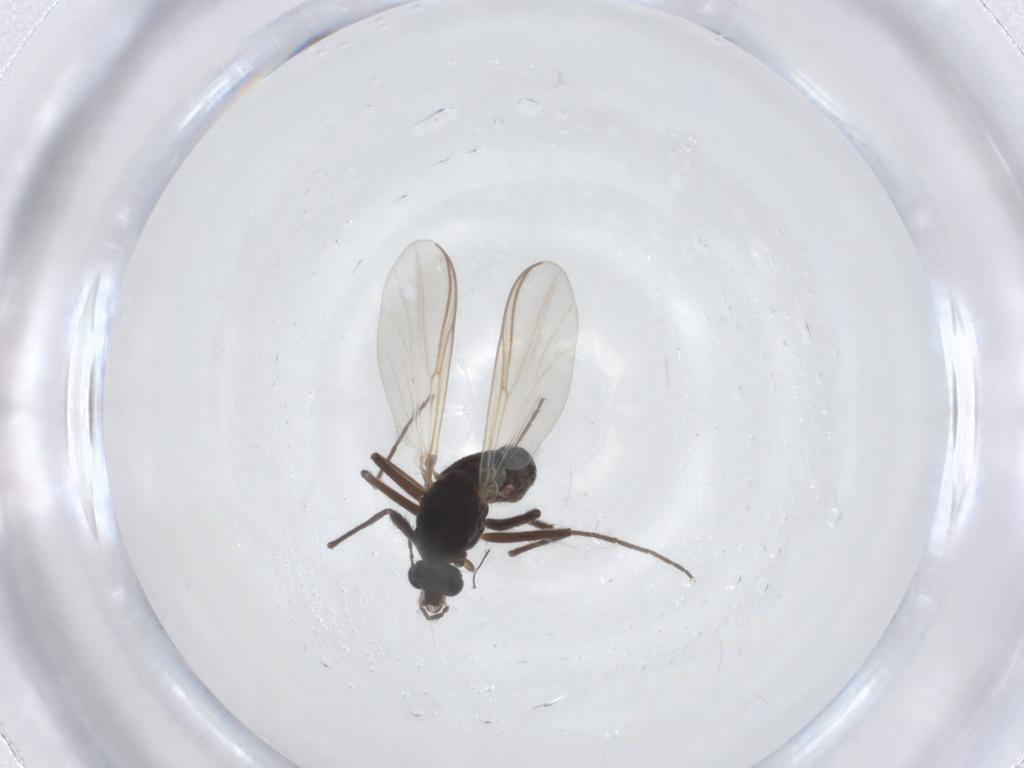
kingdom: Animalia
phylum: Arthropoda
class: Insecta
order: Diptera
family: Chironomidae
